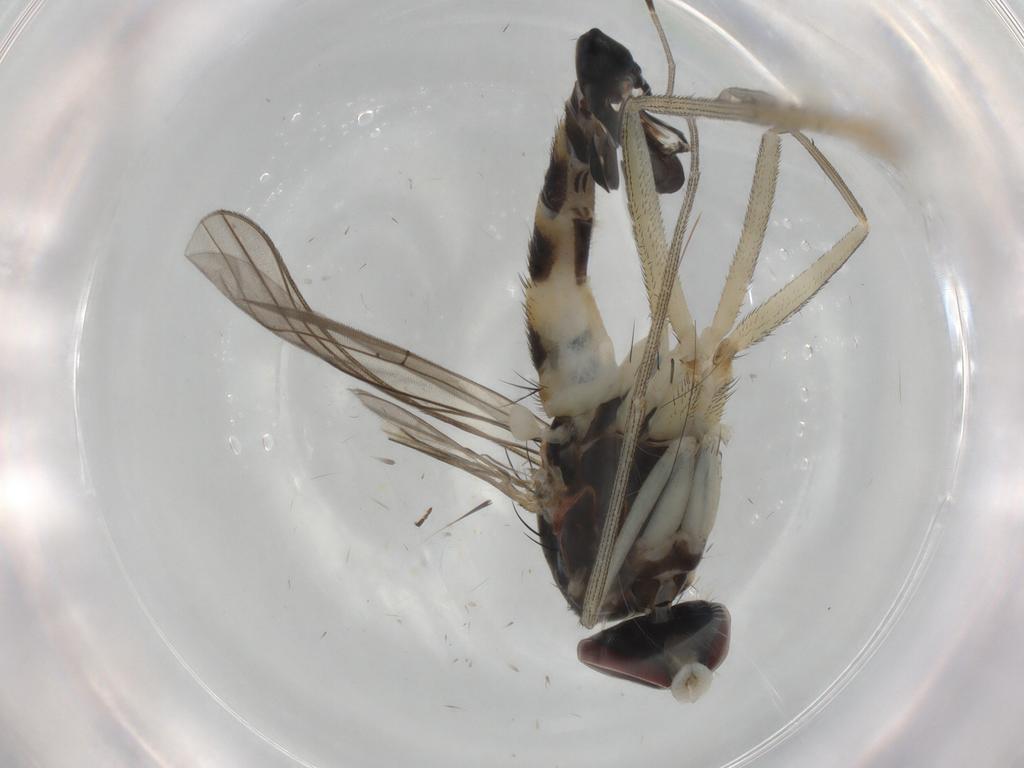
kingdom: Animalia
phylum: Arthropoda
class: Insecta
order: Diptera
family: Dolichopodidae
